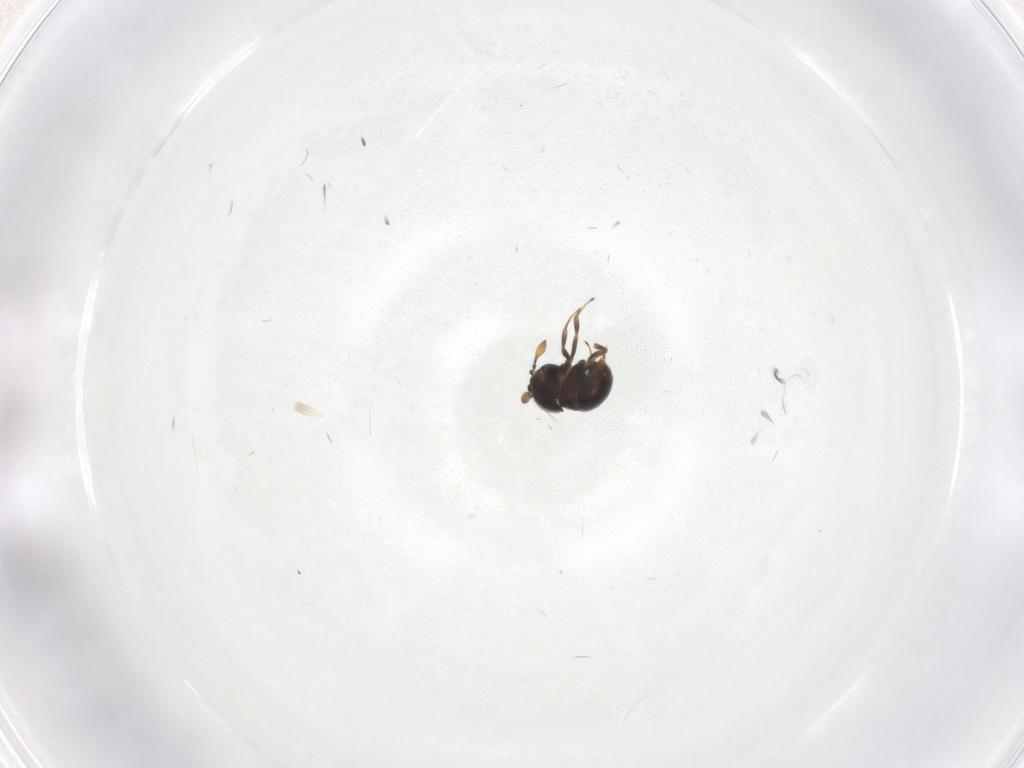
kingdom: Animalia
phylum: Arthropoda
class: Insecta
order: Hymenoptera
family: Scelionidae
